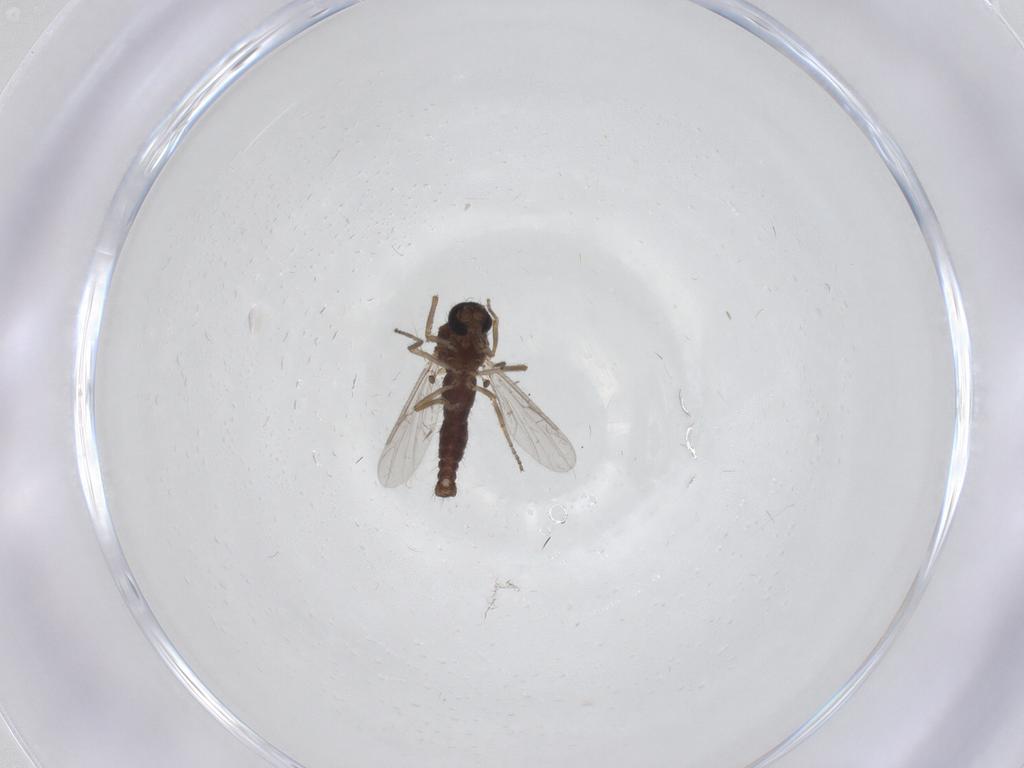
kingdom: Animalia
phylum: Arthropoda
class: Insecta
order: Diptera
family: Ceratopogonidae
